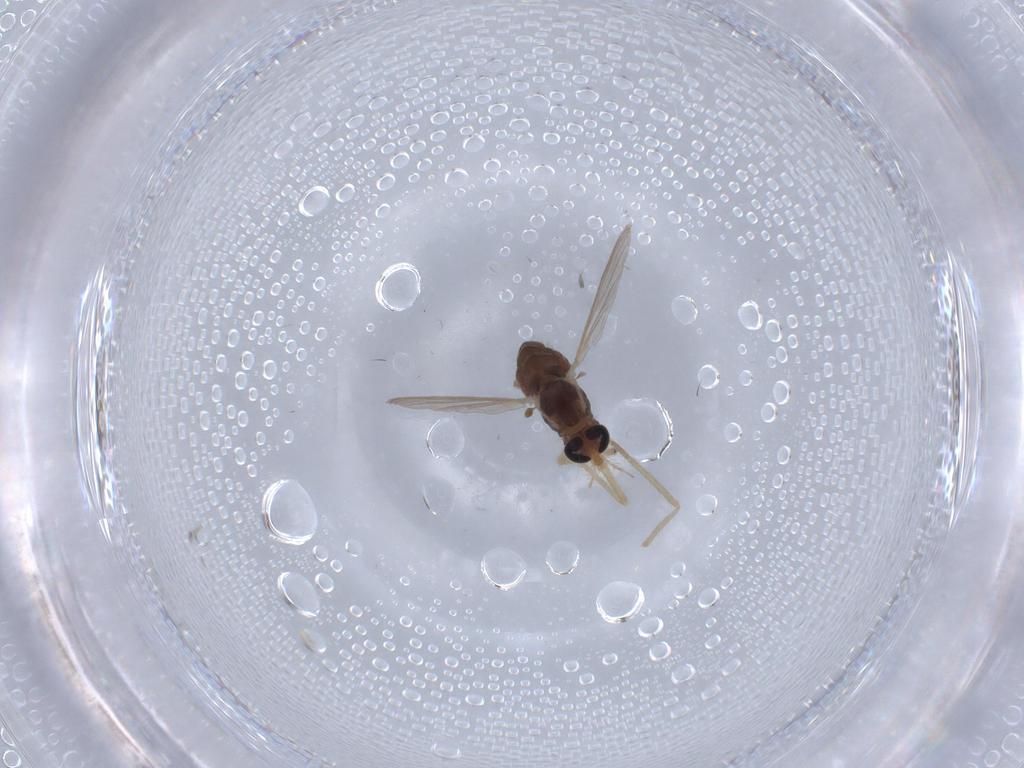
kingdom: Animalia
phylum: Arthropoda
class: Insecta
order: Diptera
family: Chironomidae
